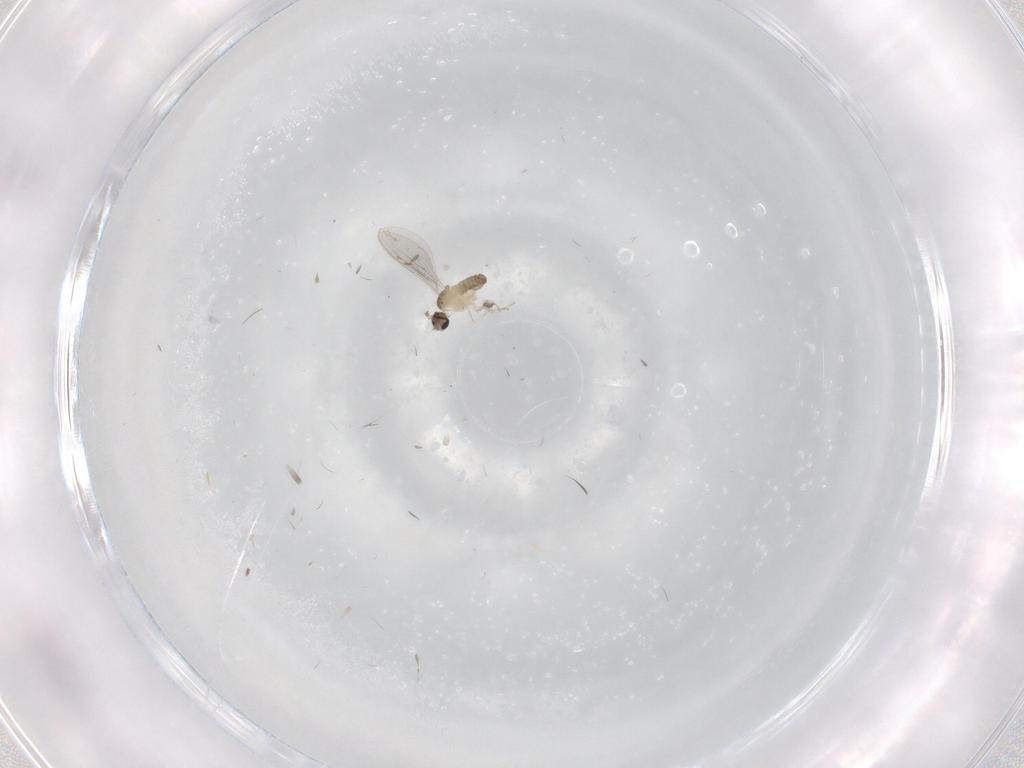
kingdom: Animalia
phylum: Arthropoda
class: Insecta
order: Diptera
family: Cecidomyiidae
